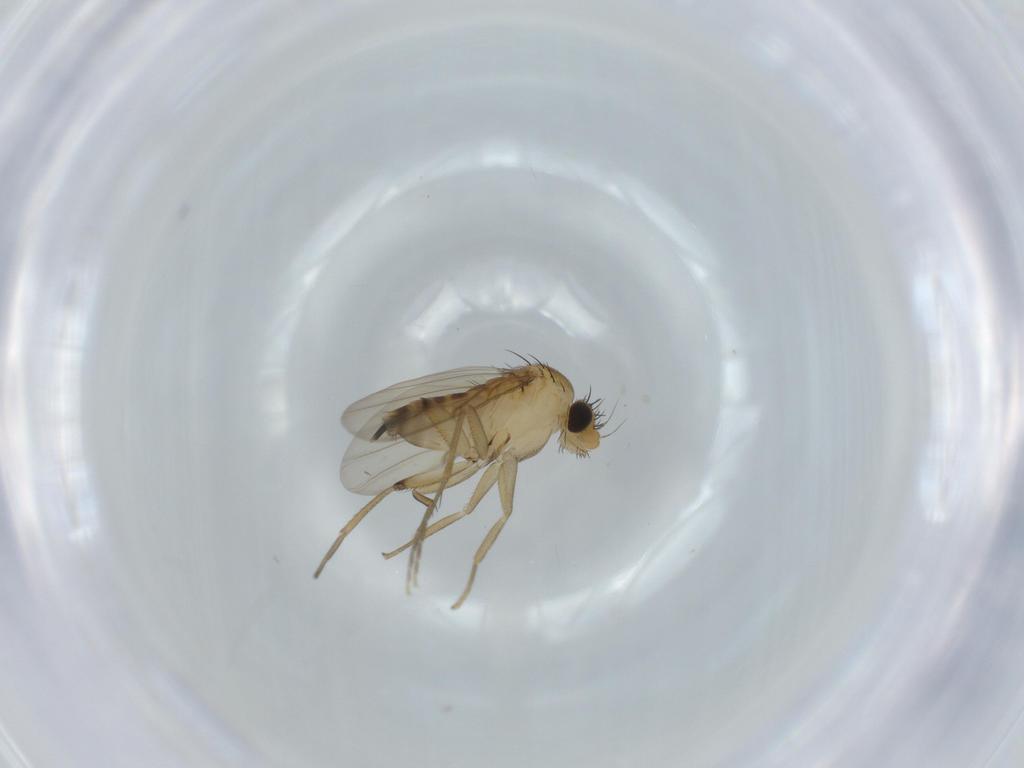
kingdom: Animalia
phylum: Arthropoda
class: Insecta
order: Diptera
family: Phoridae
